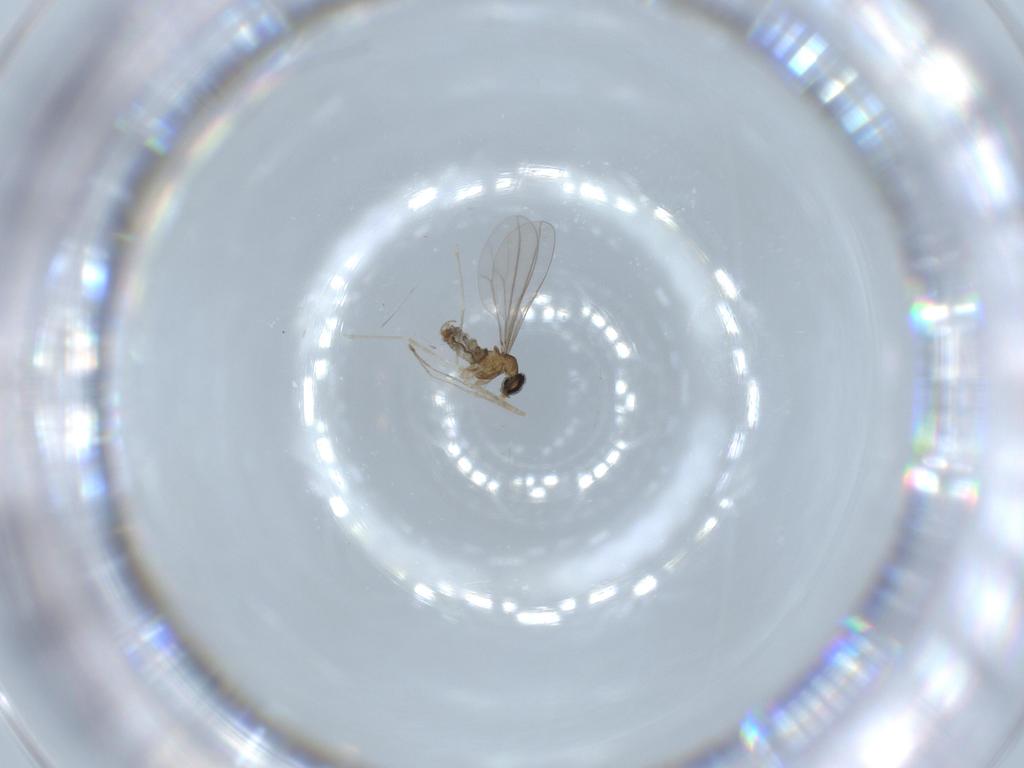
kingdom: Animalia
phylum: Arthropoda
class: Insecta
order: Diptera
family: Cecidomyiidae
